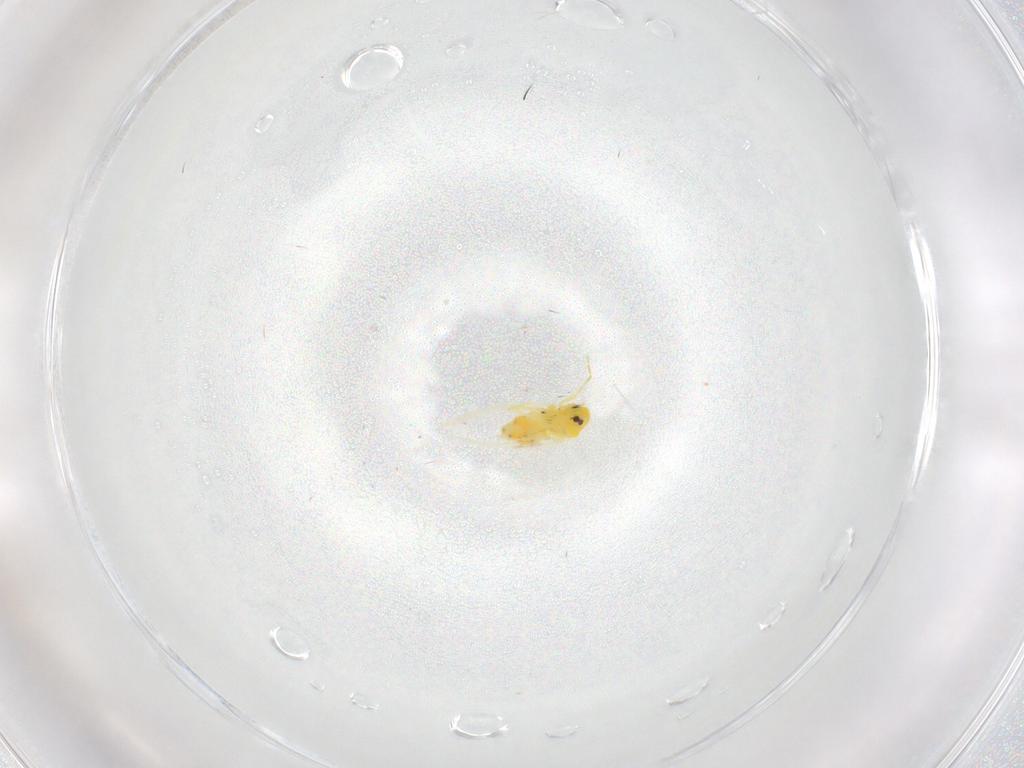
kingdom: Animalia
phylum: Arthropoda
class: Insecta
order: Hemiptera
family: Aleyrodidae
